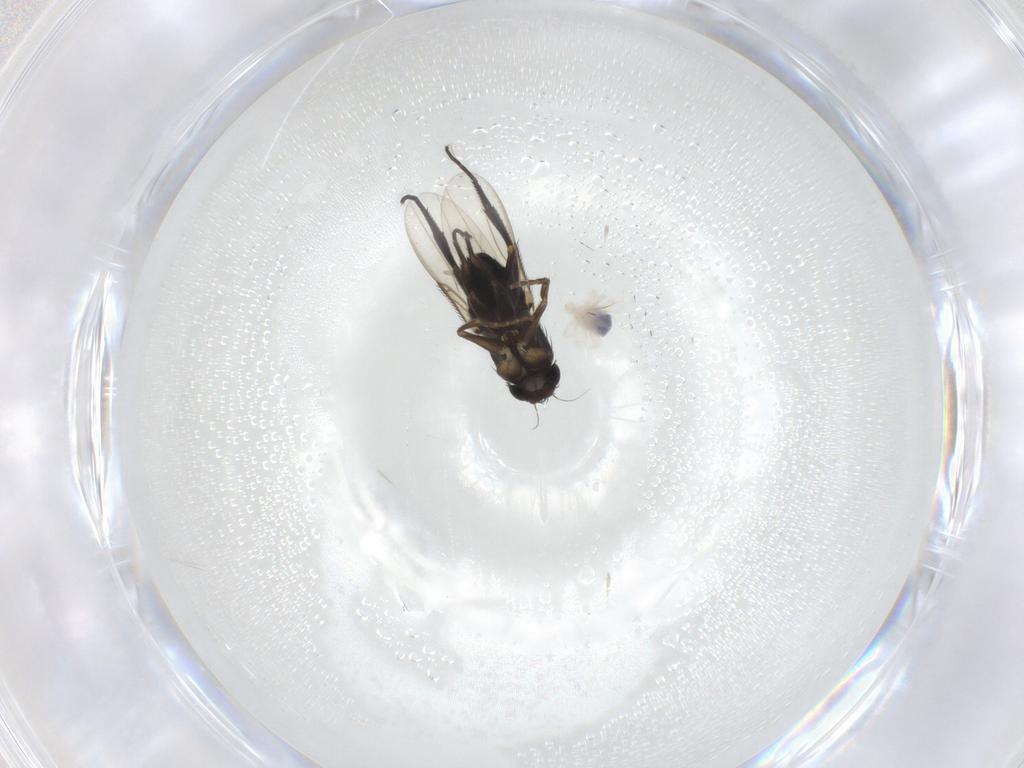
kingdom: Animalia
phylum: Arthropoda
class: Insecta
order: Diptera
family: Phoridae
